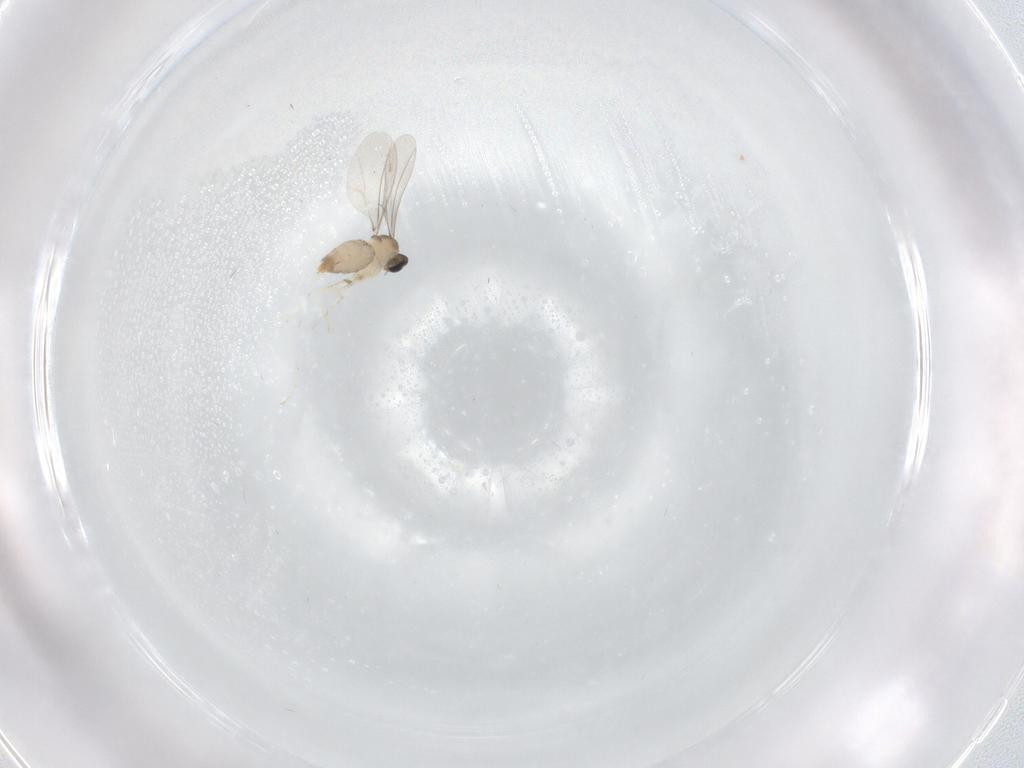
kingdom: Animalia
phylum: Arthropoda
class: Insecta
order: Diptera
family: Cecidomyiidae
